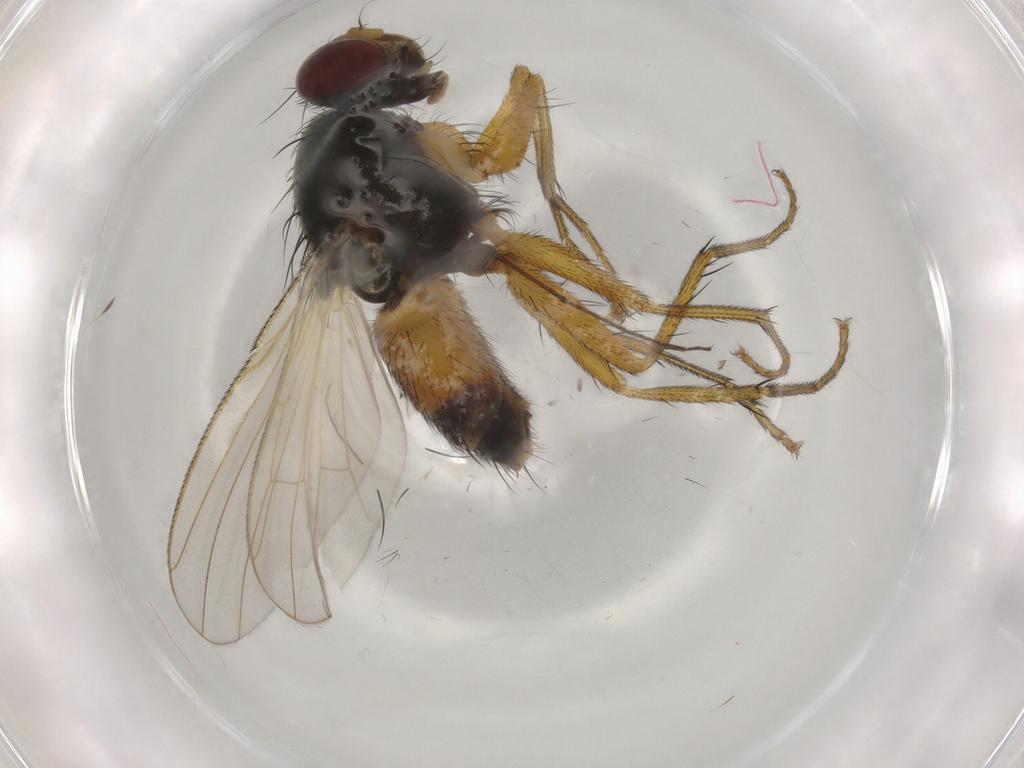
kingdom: Animalia
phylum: Arthropoda
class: Insecta
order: Diptera
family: Muscidae
